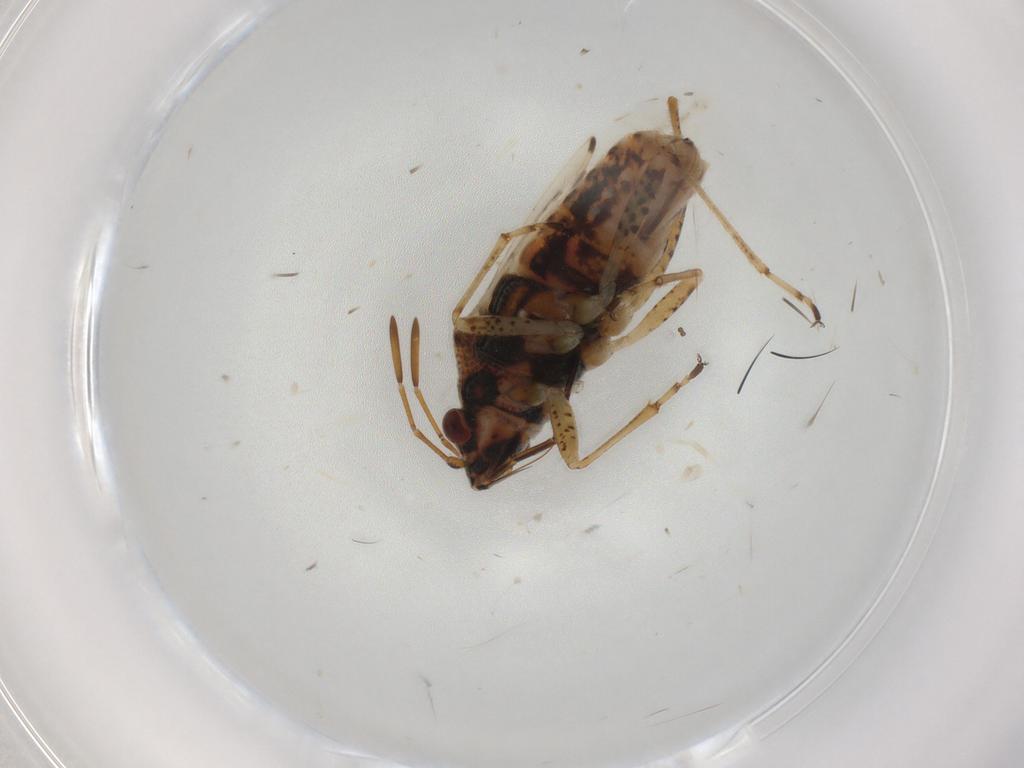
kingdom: Animalia
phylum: Arthropoda
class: Insecta
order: Hemiptera
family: Lygaeidae
